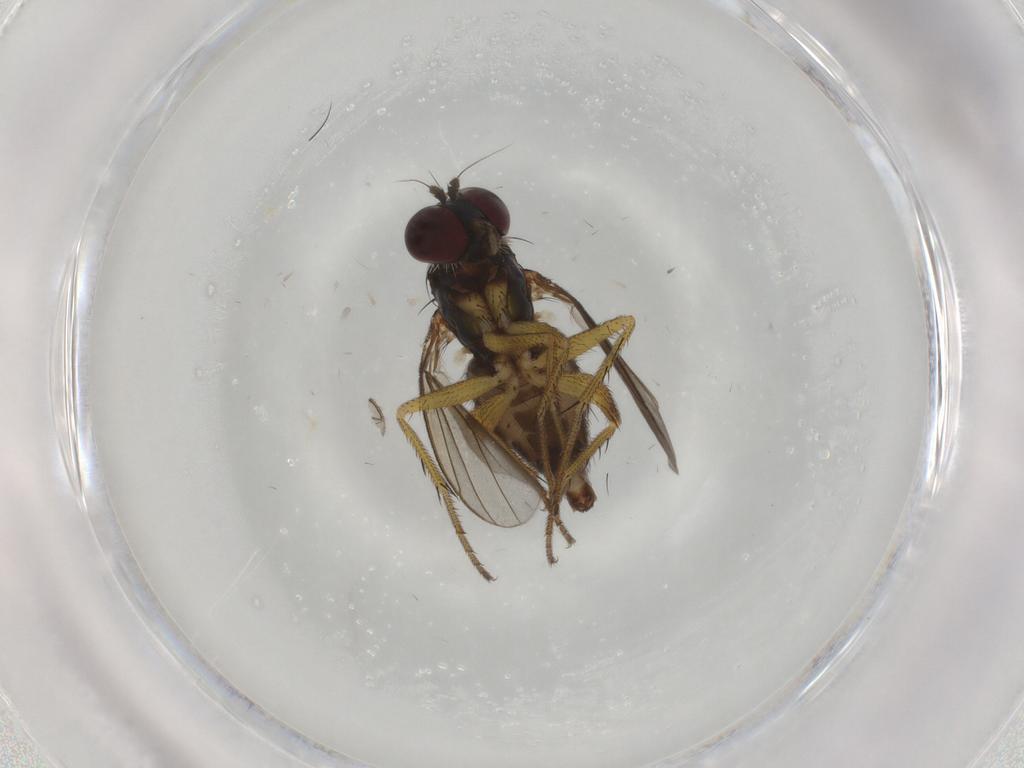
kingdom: Animalia
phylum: Arthropoda
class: Insecta
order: Diptera
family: Dolichopodidae
